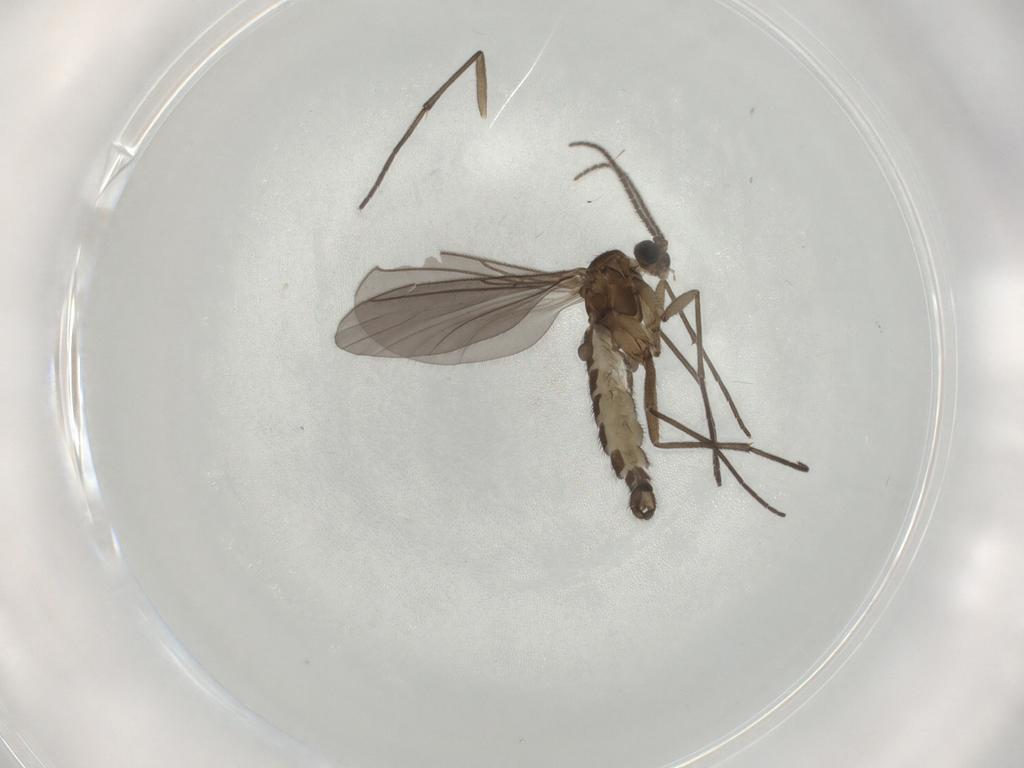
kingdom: Animalia
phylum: Arthropoda
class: Insecta
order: Diptera
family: Sciaridae
